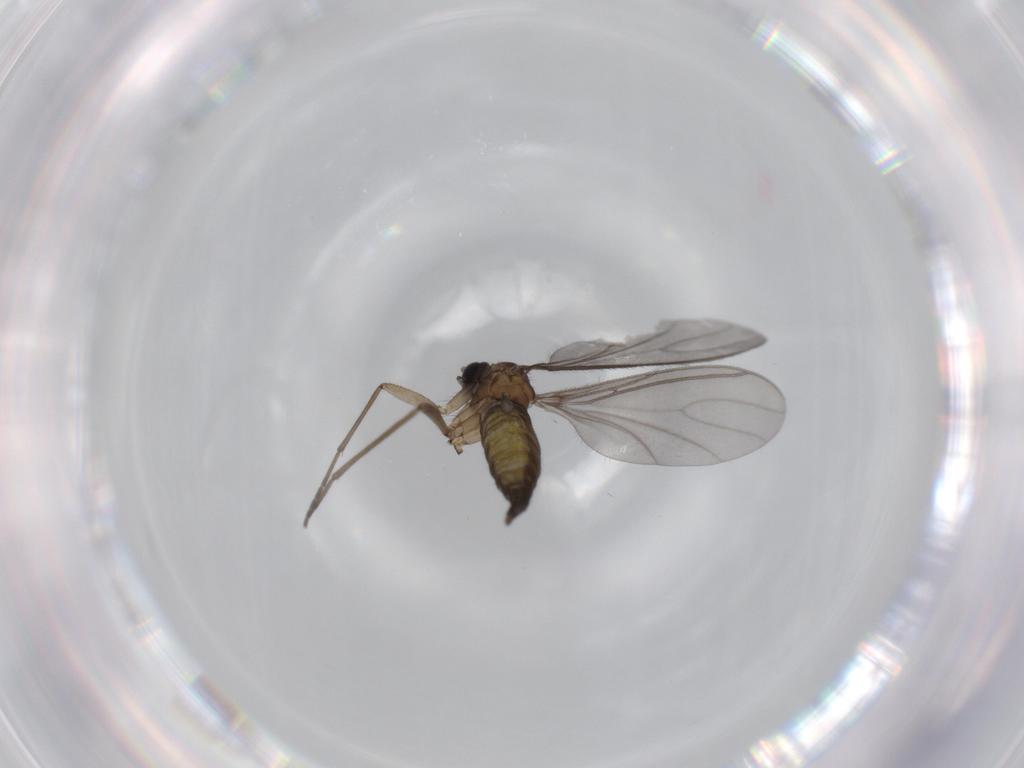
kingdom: Animalia
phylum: Arthropoda
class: Insecta
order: Diptera
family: Sciaridae
